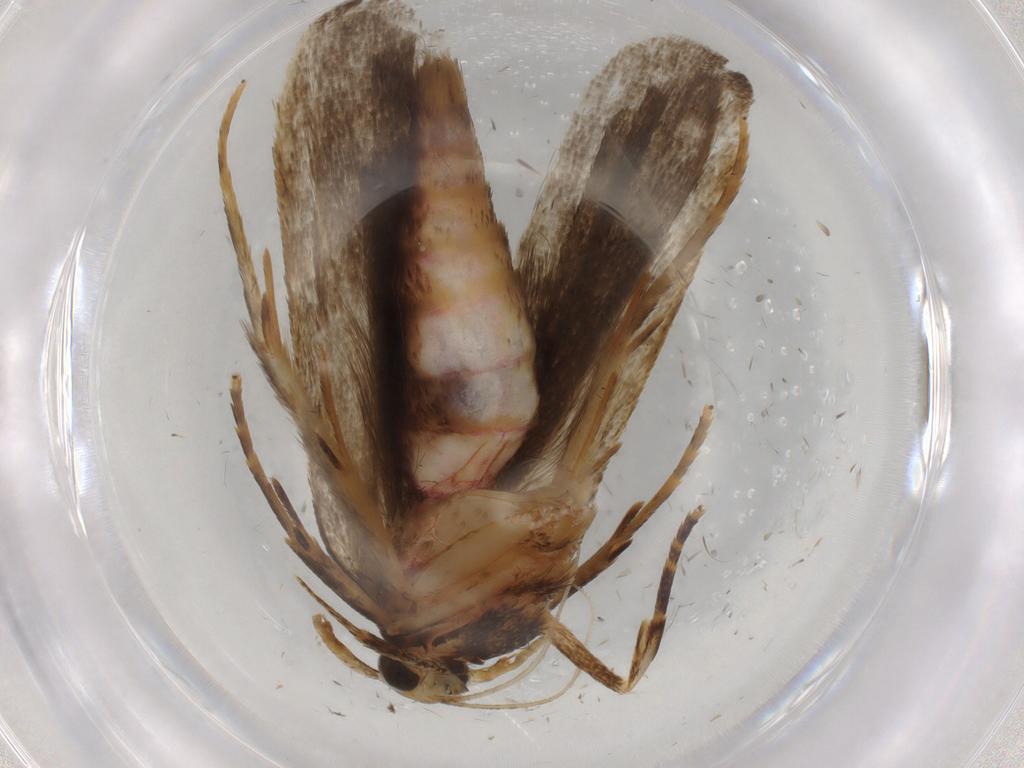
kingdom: Animalia
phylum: Arthropoda
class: Insecta
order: Lepidoptera
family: Autostichidae
